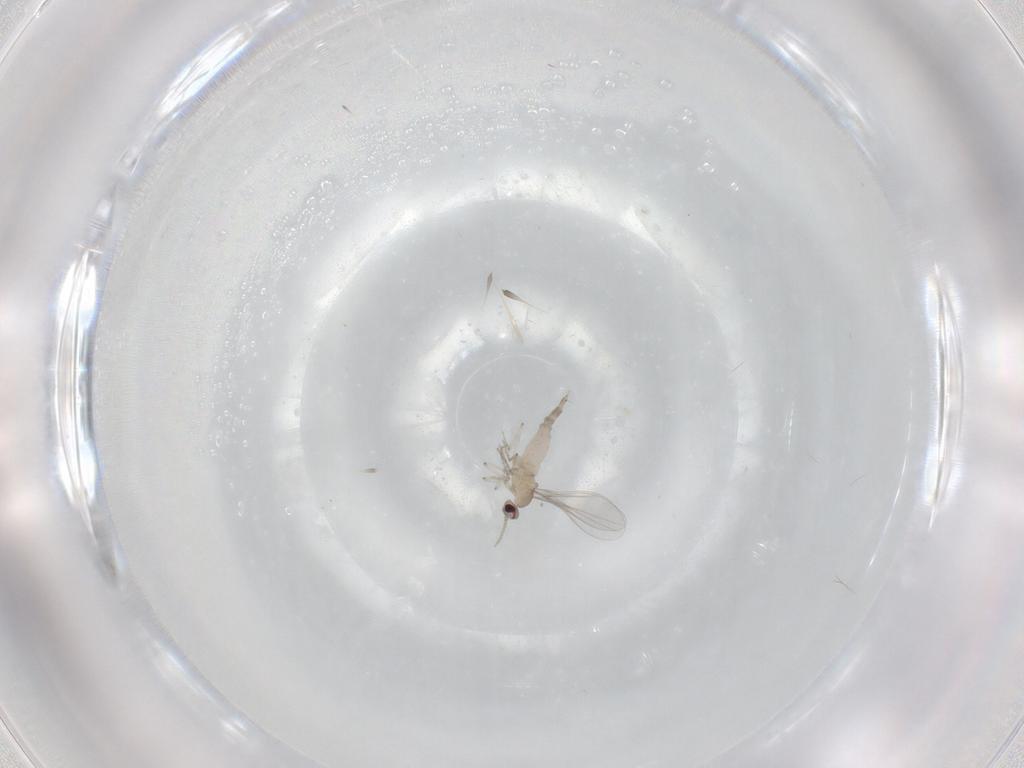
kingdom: Animalia
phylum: Arthropoda
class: Insecta
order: Diptera
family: Cecidomyiidae
